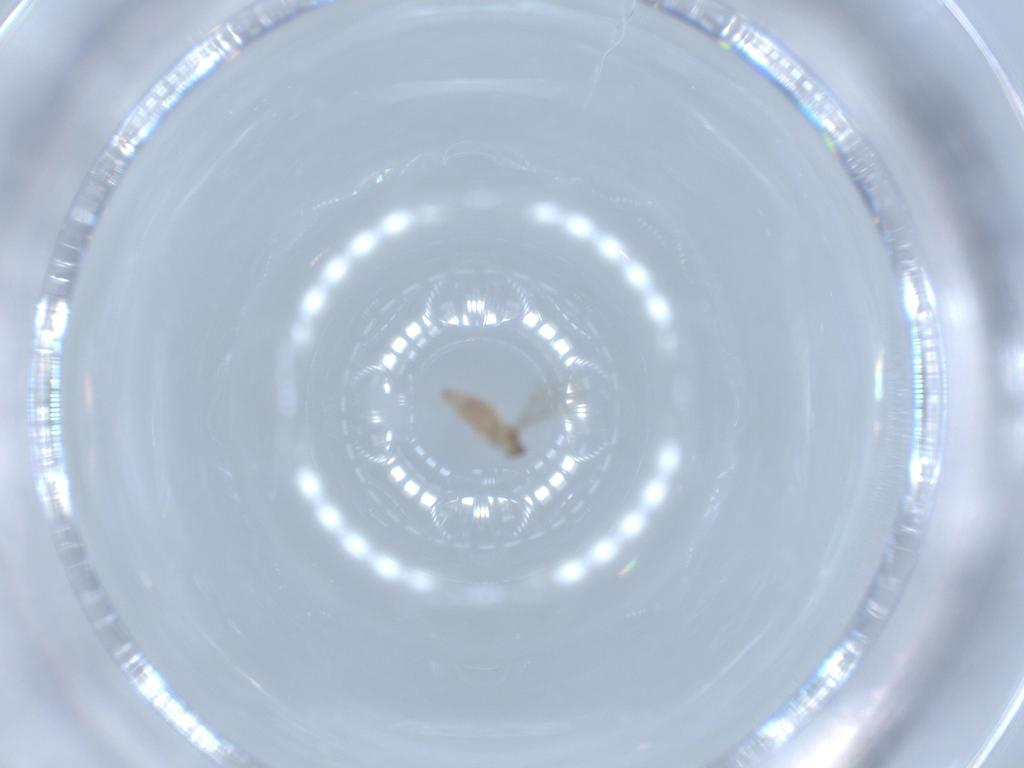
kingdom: Animalia
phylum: Arthropoda
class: Insecta
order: Diptera
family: Cecidomyiidae
